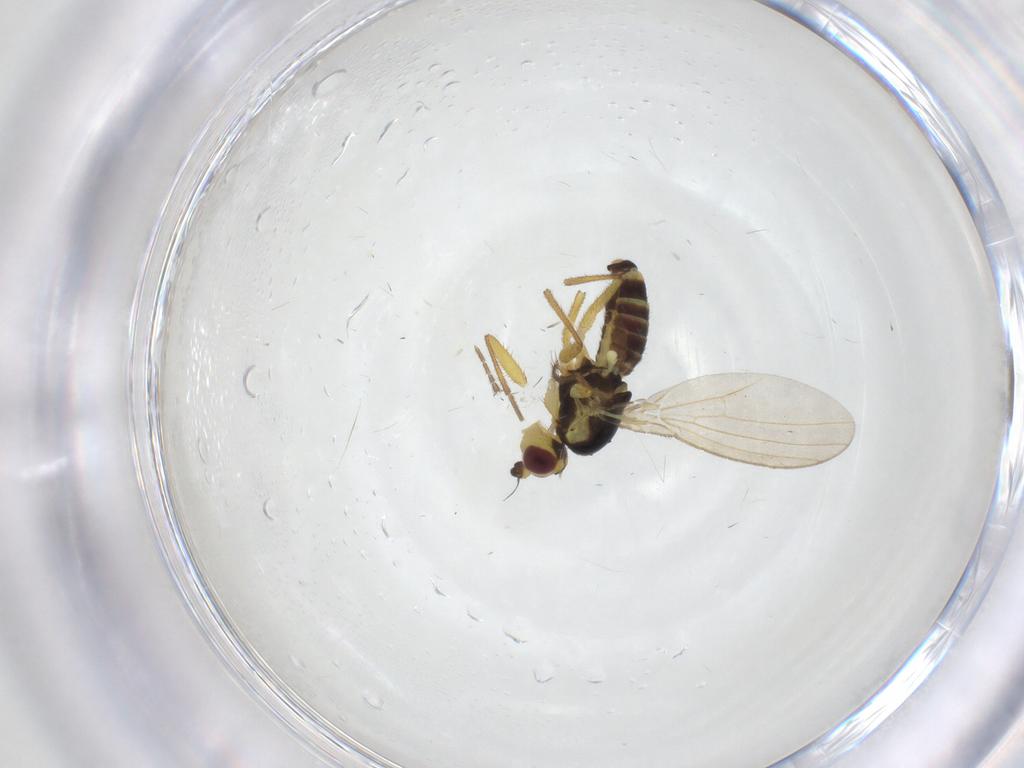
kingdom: Animalia
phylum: Arthropoda
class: Insecta
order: Diptera
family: Agromyzidae
